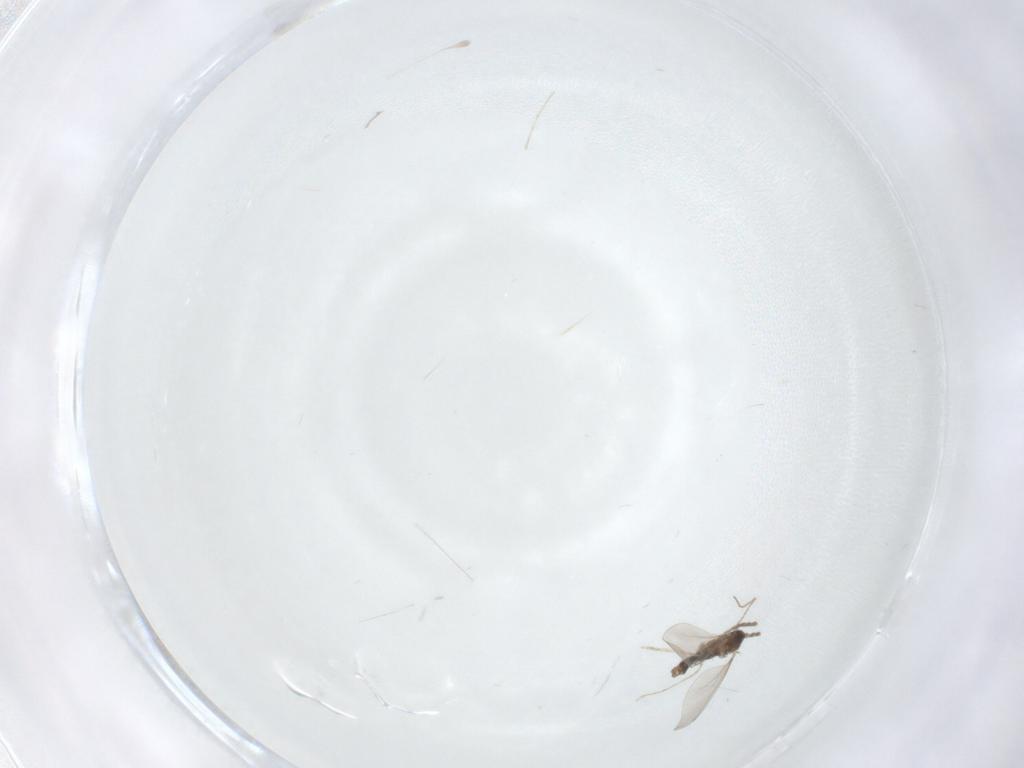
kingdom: Animalia
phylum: Arthropoda
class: Insecta
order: Diptera
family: Cecidomyiidae
